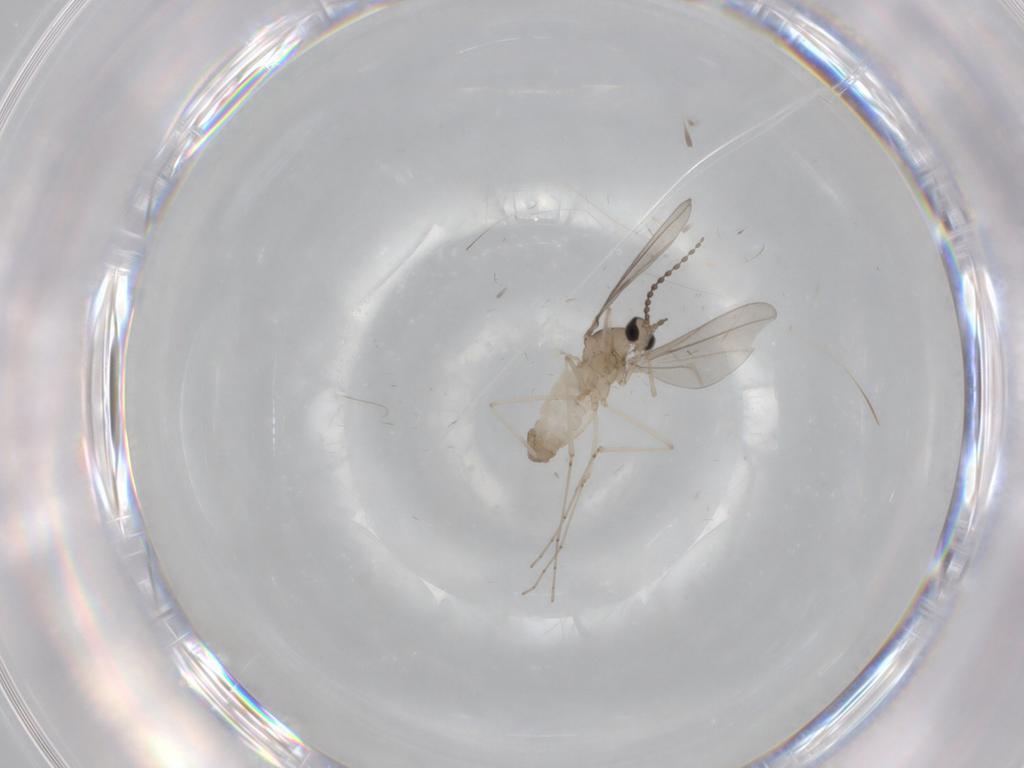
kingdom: Animalia
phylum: Arthropoda
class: Insecta
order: Diptera
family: Cecidomyiidae
